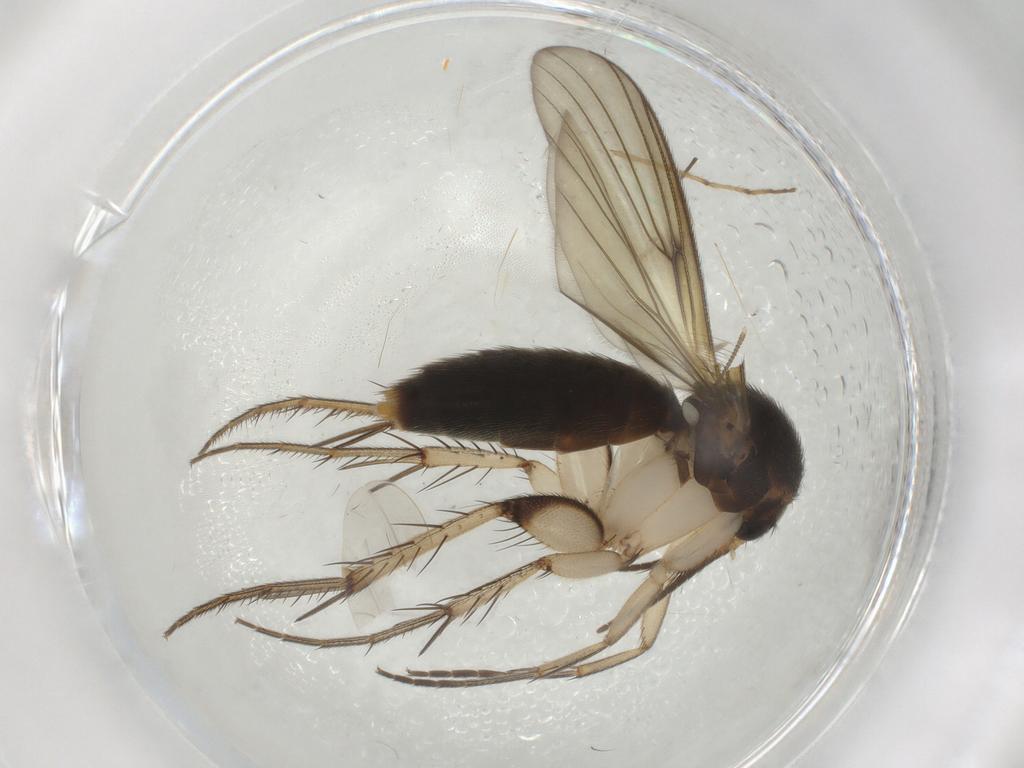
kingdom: Animalia
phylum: Arthropoda
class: Insecta
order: Diptera
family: Mycetophilidae
